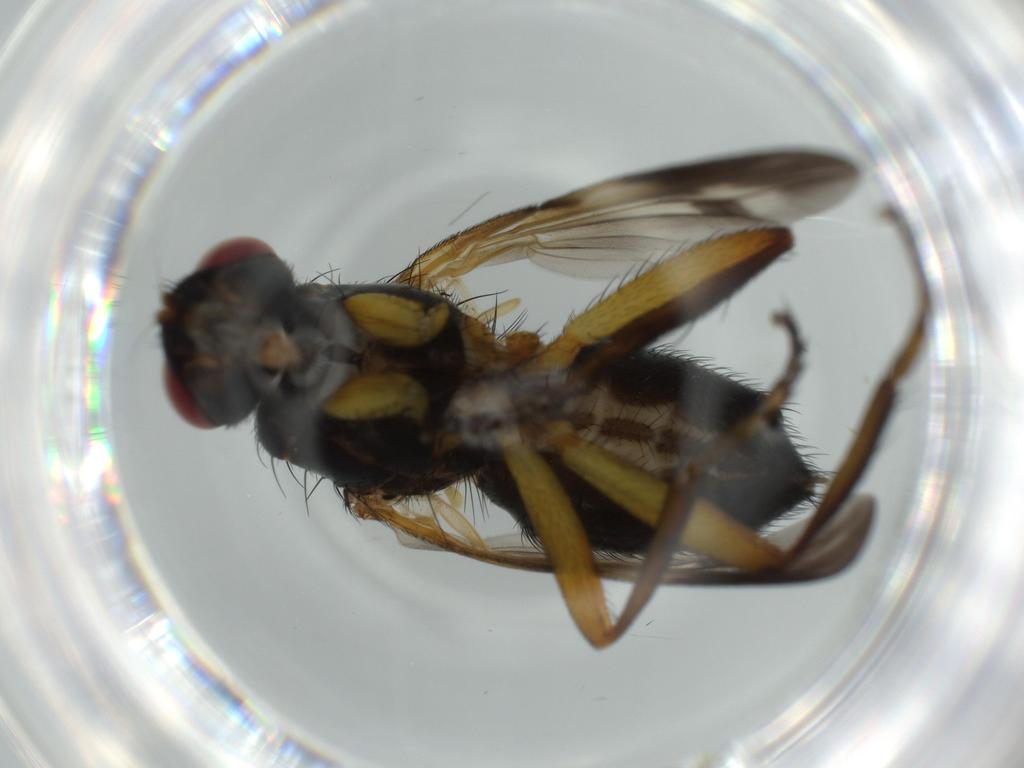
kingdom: Animalia
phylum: Arthropoda
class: Insecta
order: Diptera
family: Calliphoridae
